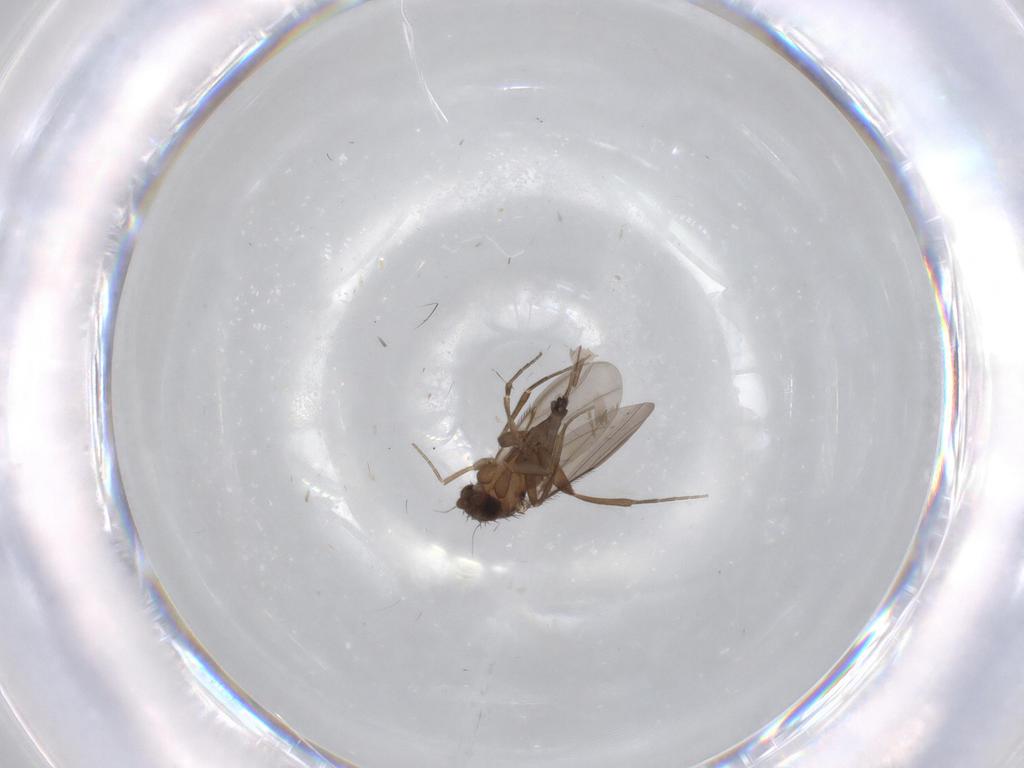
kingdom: Animalia
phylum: Arthropoda
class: Insecta
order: Diptera
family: Phoridae
